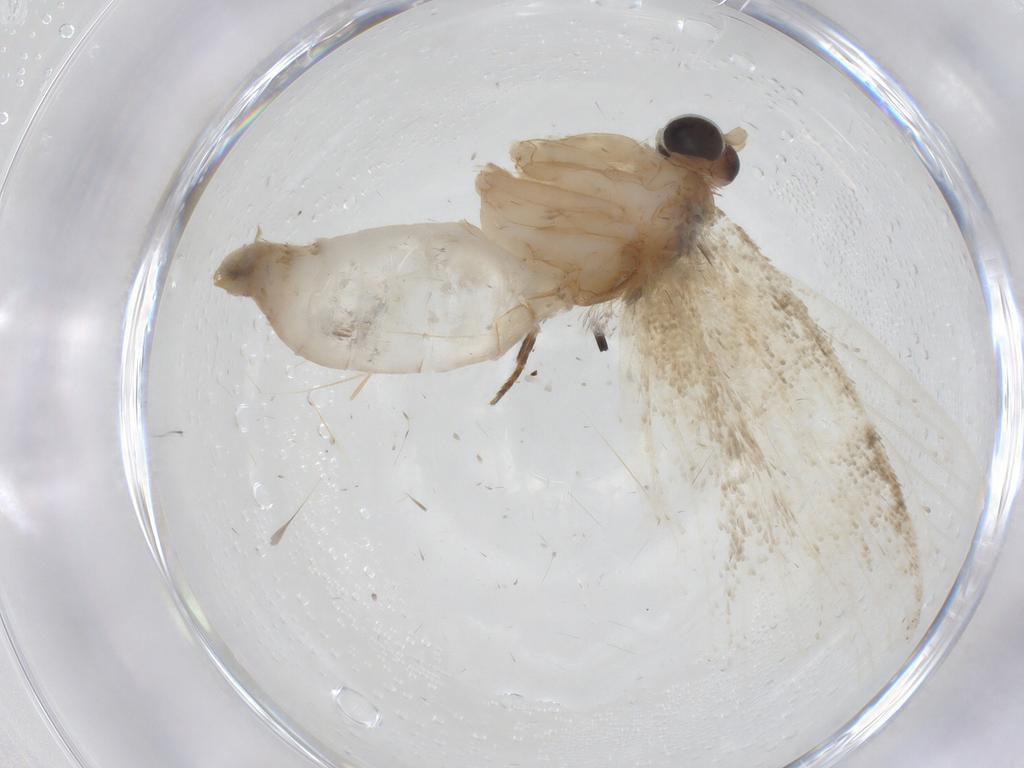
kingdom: Animalia
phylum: Arthropoda
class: Insecta
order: Lepidoptera
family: Tortricidae
